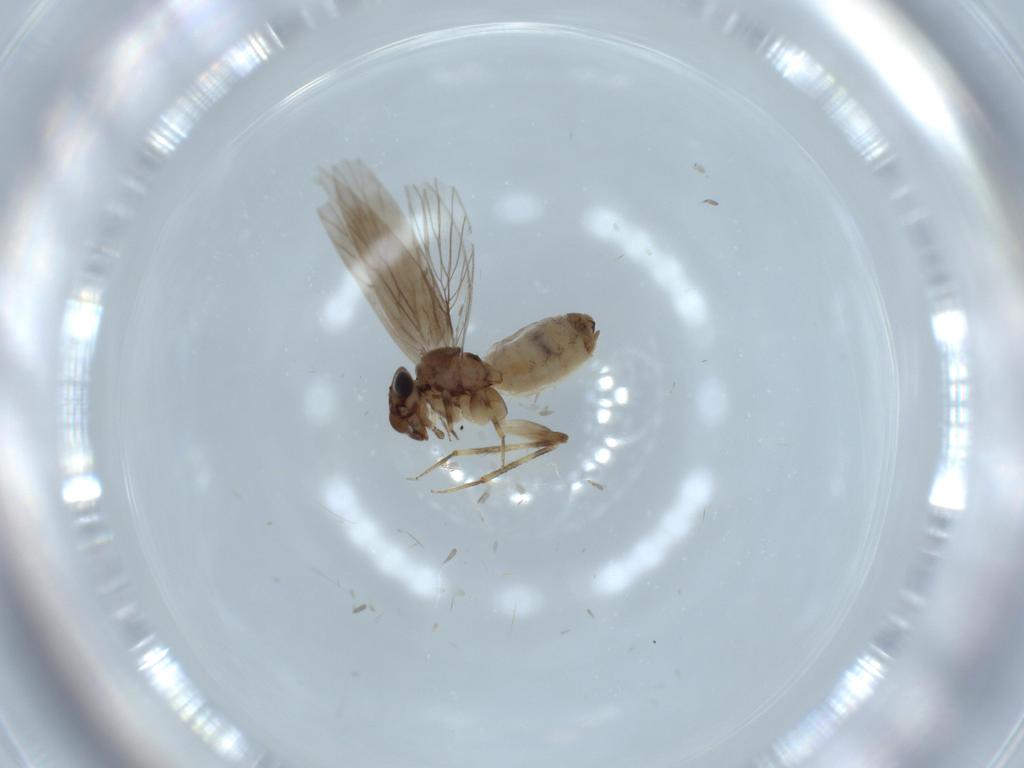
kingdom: Animalia
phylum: Arthropoda
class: Insecta
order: Psocodea
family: Lepidopsocidae
